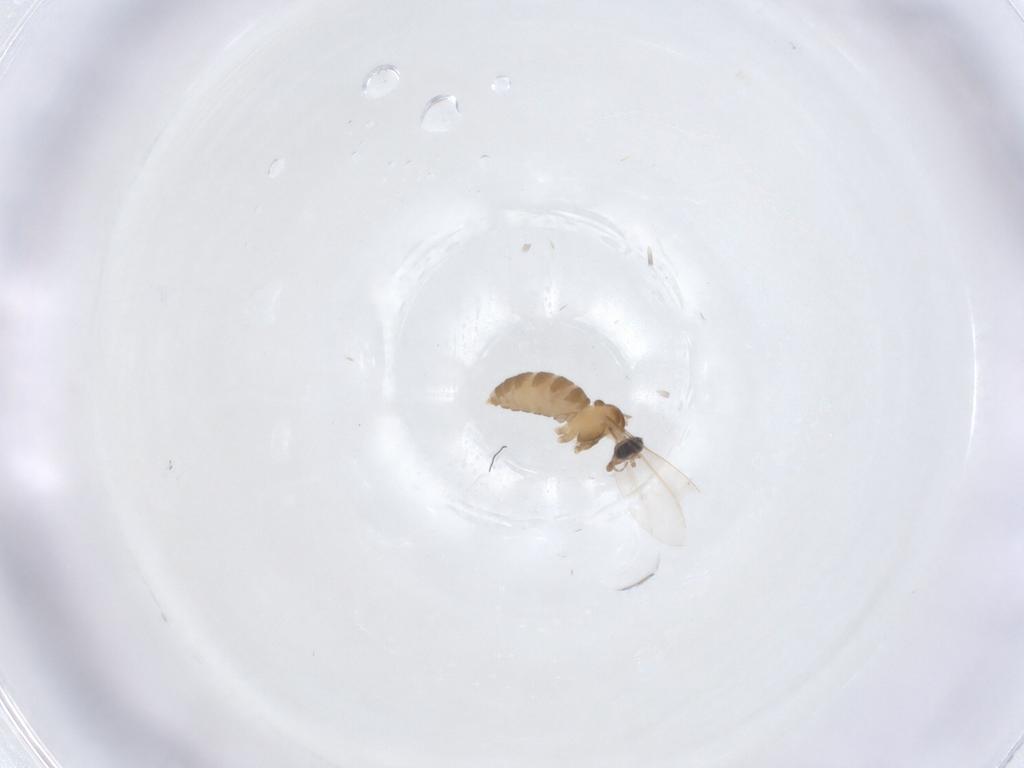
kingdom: Animalia
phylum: Arthropoda
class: Insecta
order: Diptera
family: Cecidomyiidae
